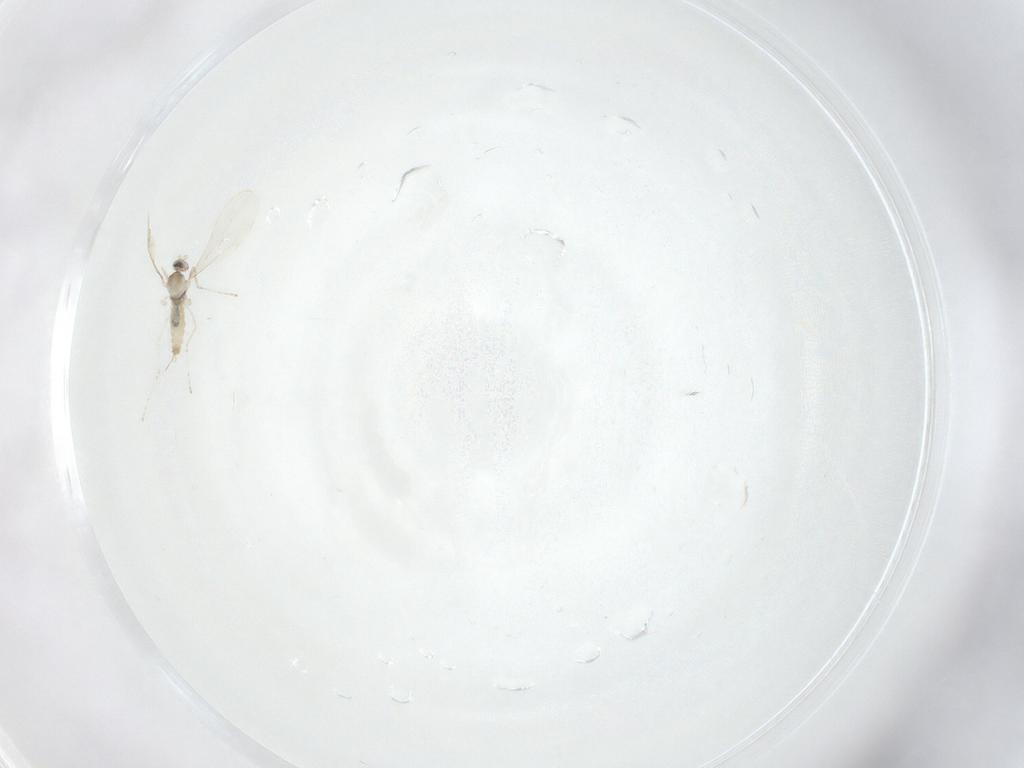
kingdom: Animalia
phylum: Arthropoda
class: Insecta
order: Diptera
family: Sciaridae
